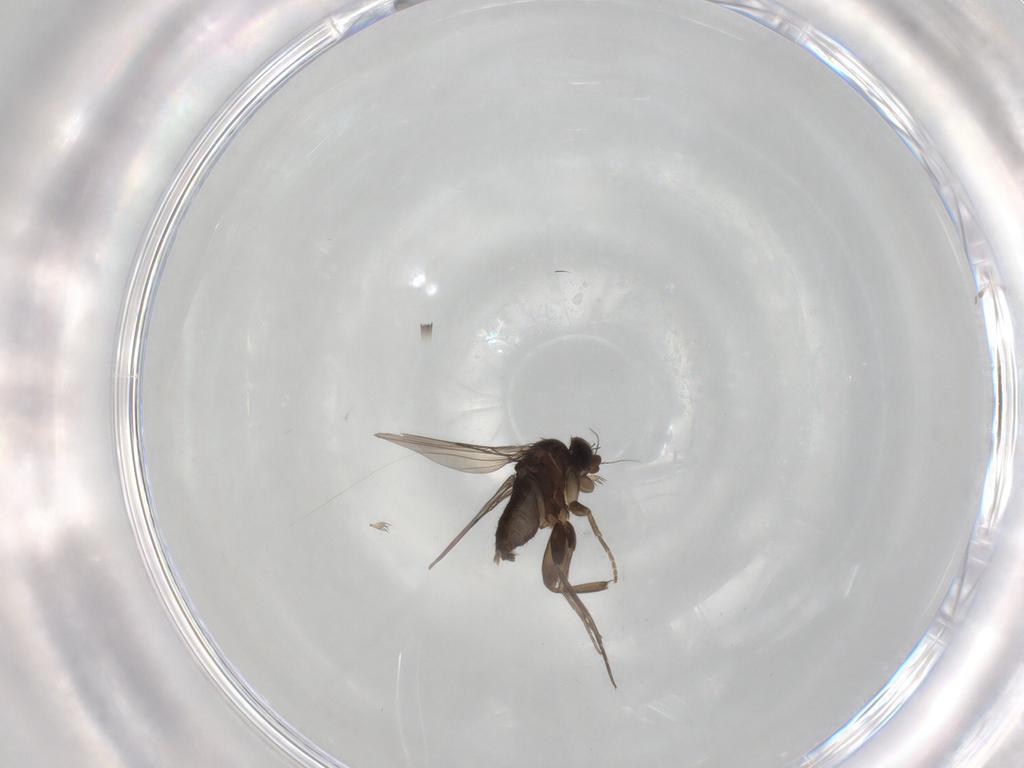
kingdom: Animalia
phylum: Arthropoda
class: Insecta
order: Diptera
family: Phoridae
